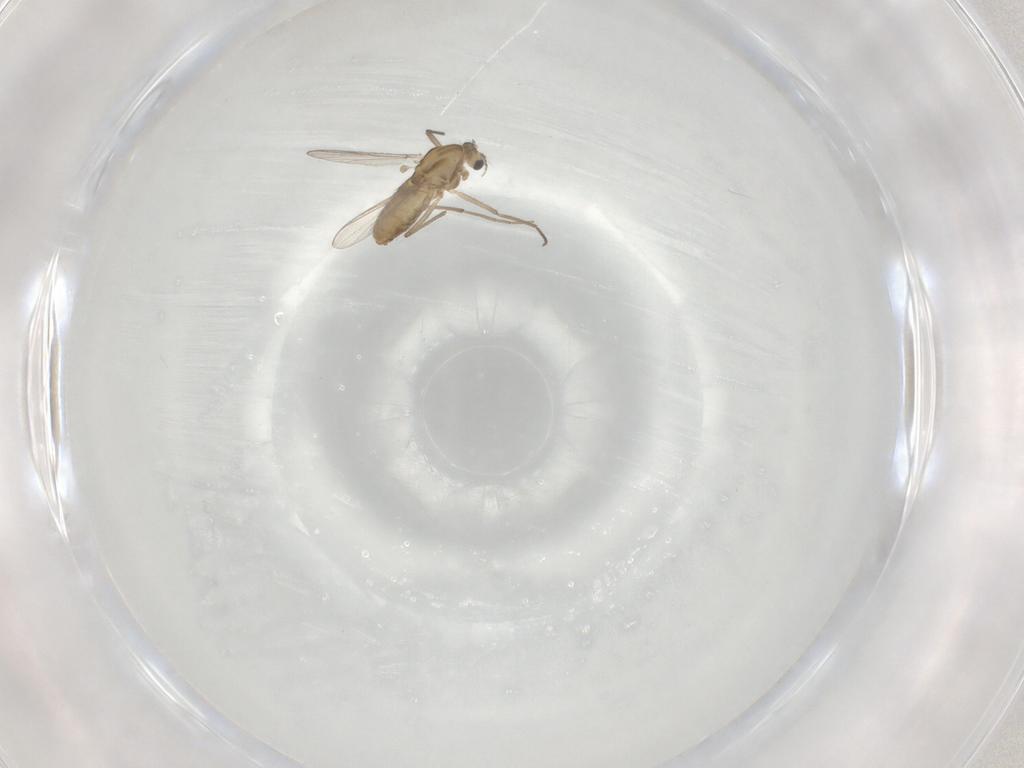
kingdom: Animalia
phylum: Arthropoda
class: Insecta
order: Diptera
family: Chironomidae
